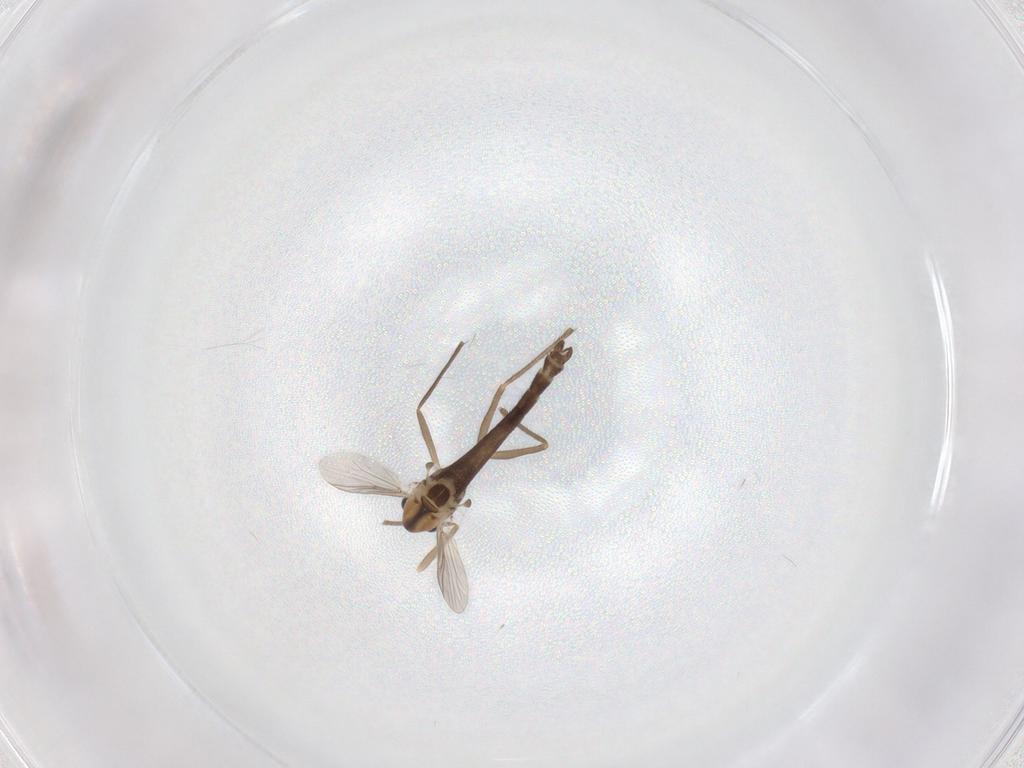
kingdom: Animalia
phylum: Arthropoda
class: Insecta
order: Diptera
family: Chironomidae
